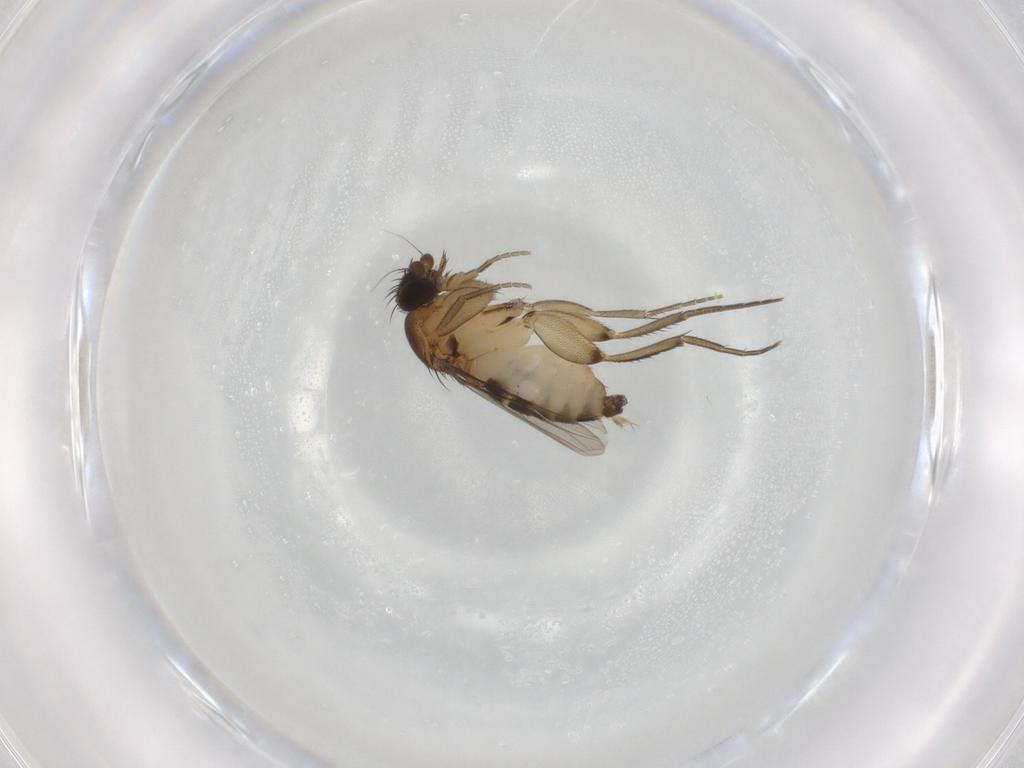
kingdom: Animalia
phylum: Arthropoda
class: Insecta
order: Diptera
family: Phoridae
